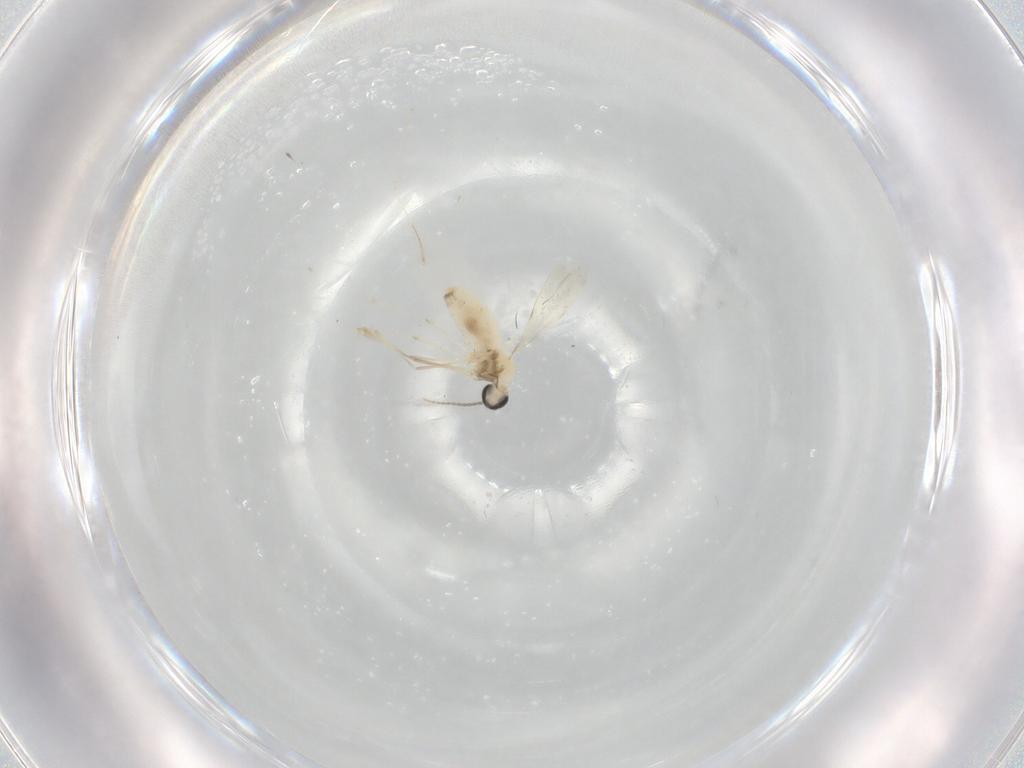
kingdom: Animalia
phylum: Arthropoda
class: Insecta
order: Diptera
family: Cecidomyiidae
